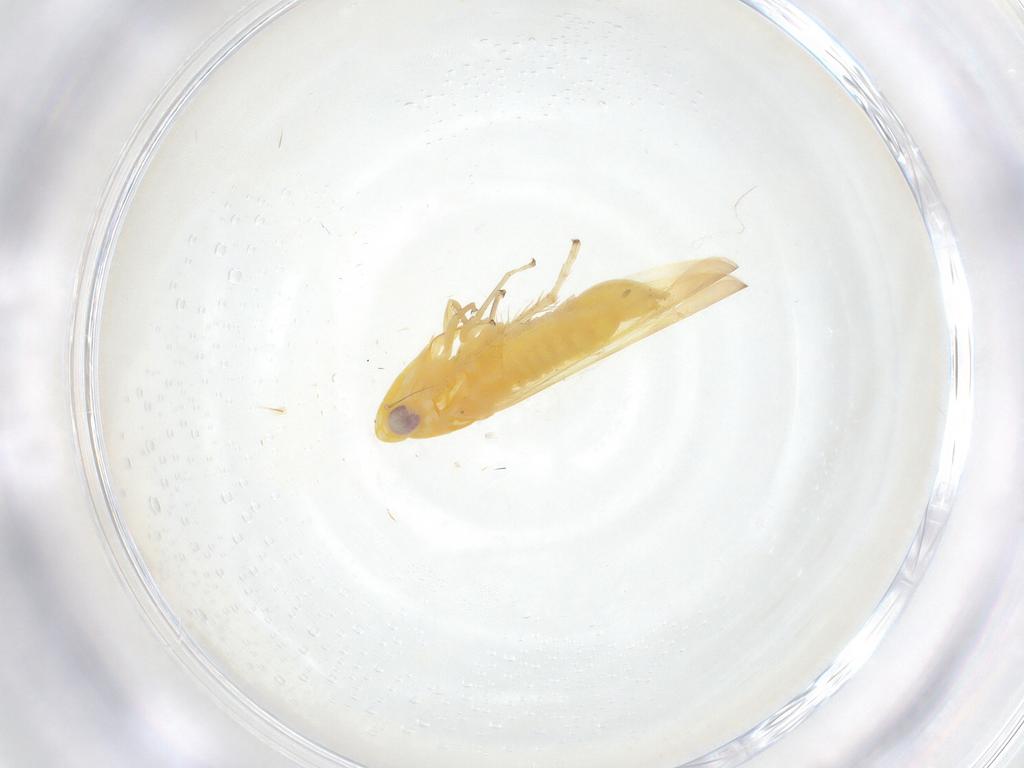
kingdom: Animalia
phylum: Arthropoda
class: Insecta
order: Hemiptera
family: Cicadellidae
